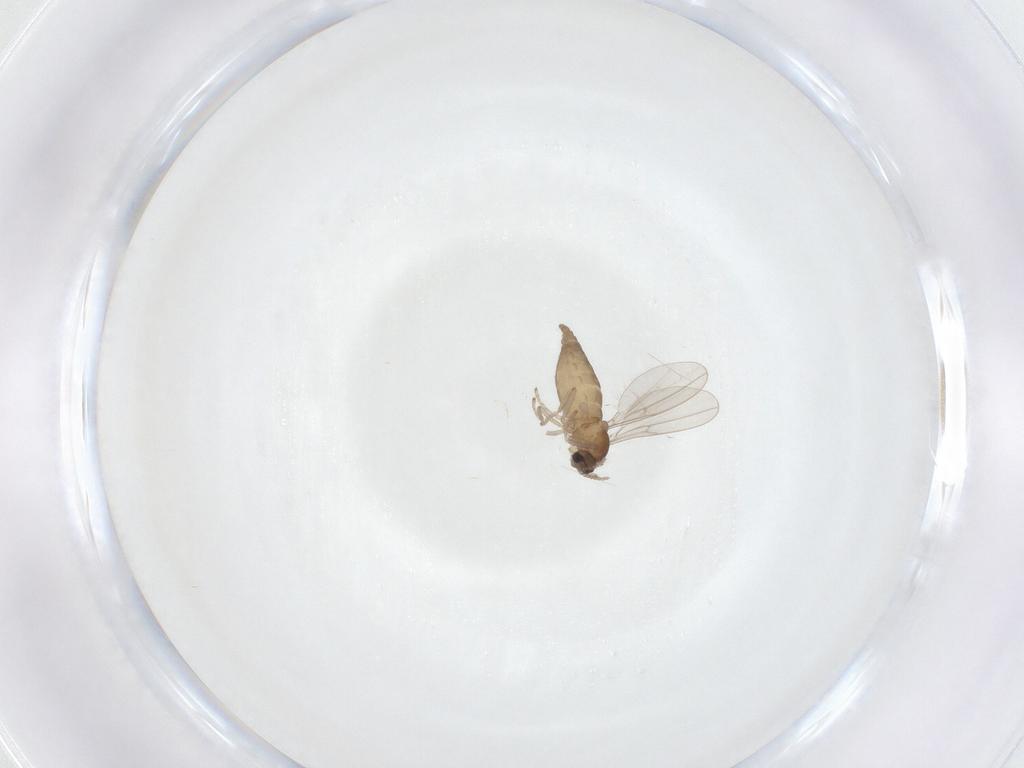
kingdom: Animalia
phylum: Arthropoda
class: Insecta
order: Diptera
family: Cecidomyiidae
